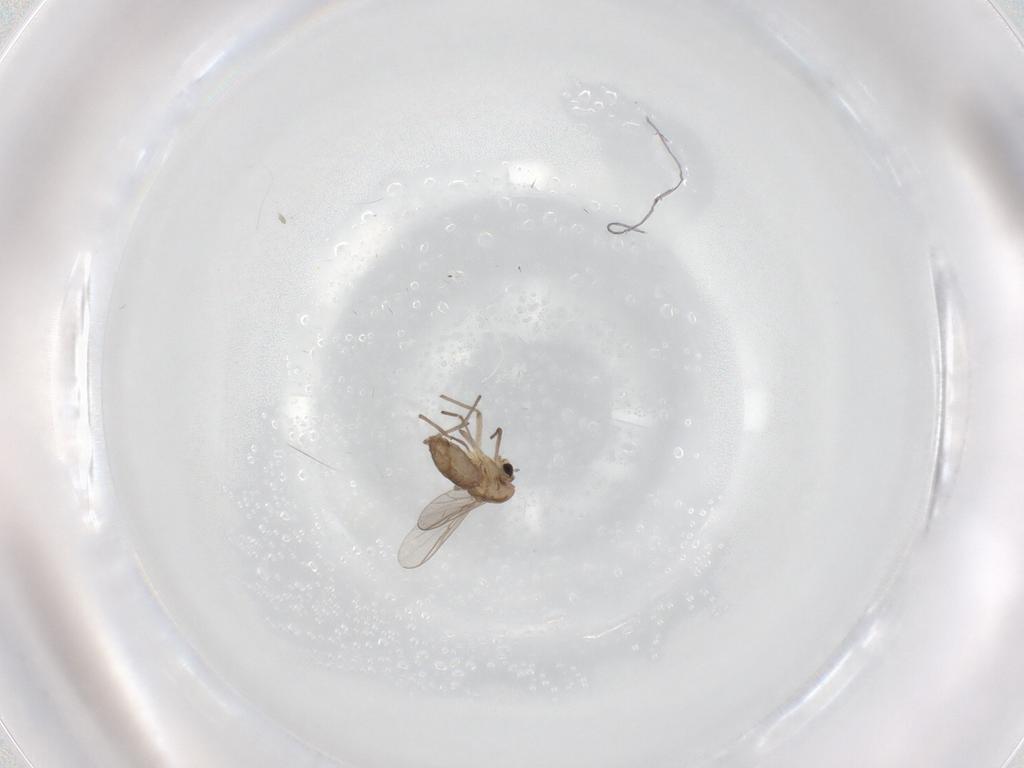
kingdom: Animalia
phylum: Arthropoda
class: Insecta
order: Diptera
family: Chironomidae
